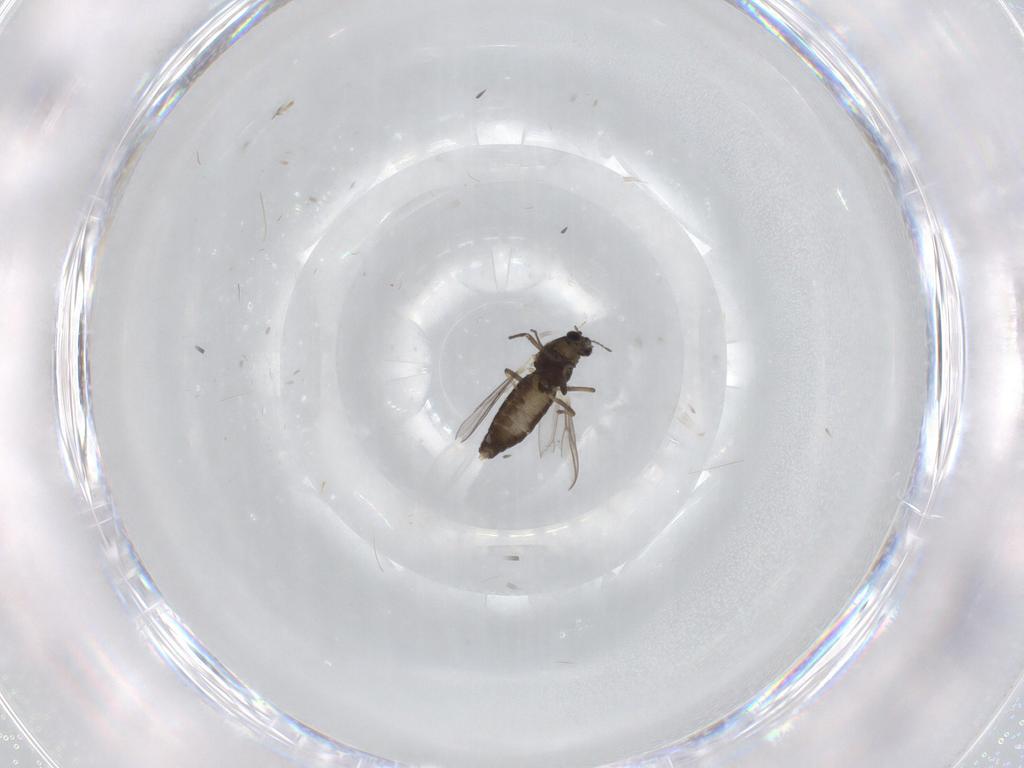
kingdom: Animalia
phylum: Arthropoda
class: Insecta
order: Diptera
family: Chironomidae
